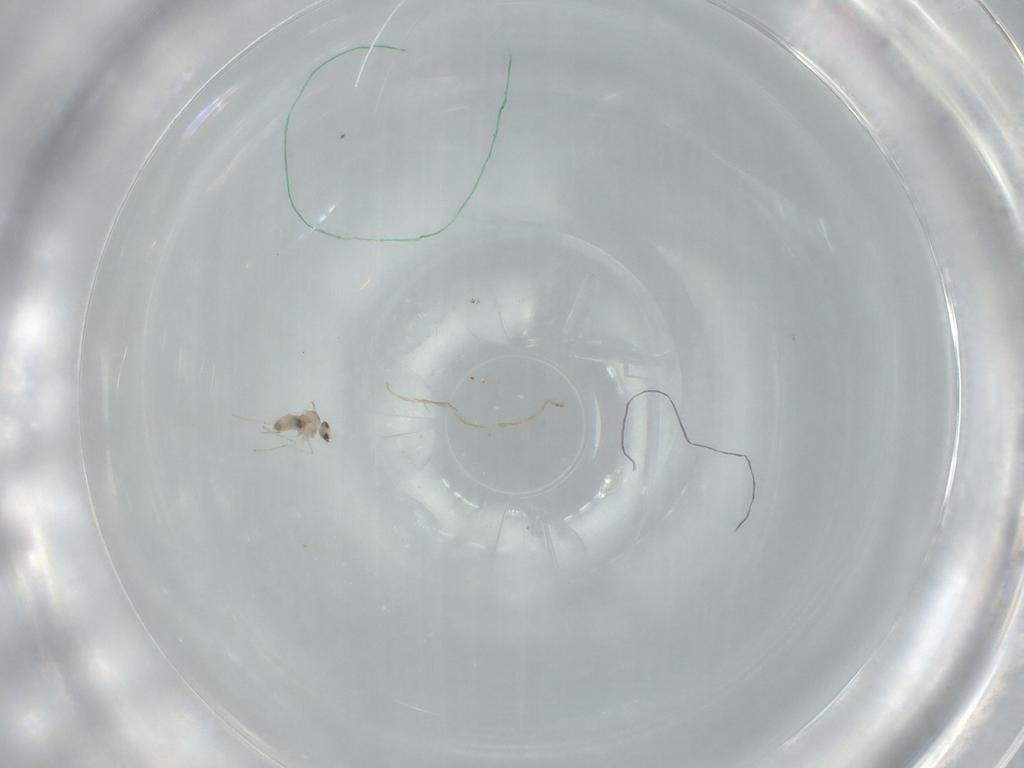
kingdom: Animalia
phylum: Arthropoda
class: Insecta
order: Diptera
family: Cecidomyiidae
